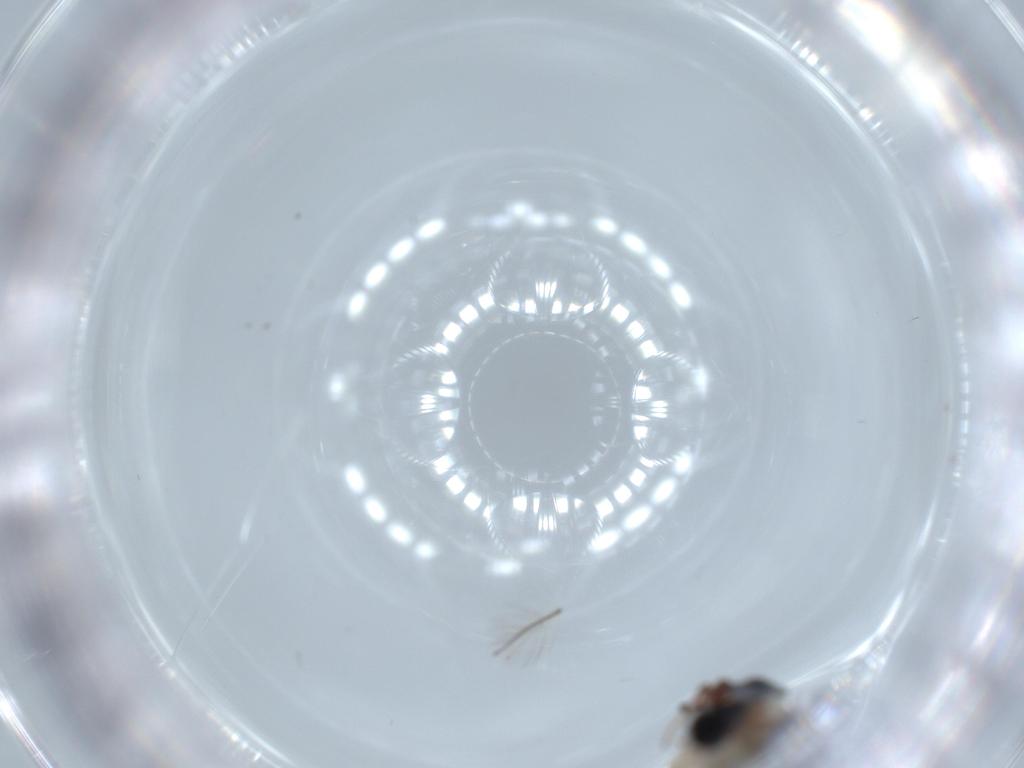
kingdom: Animalia
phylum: Arthropoda
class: Insecta
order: Hymenoptera
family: Platygastridae
